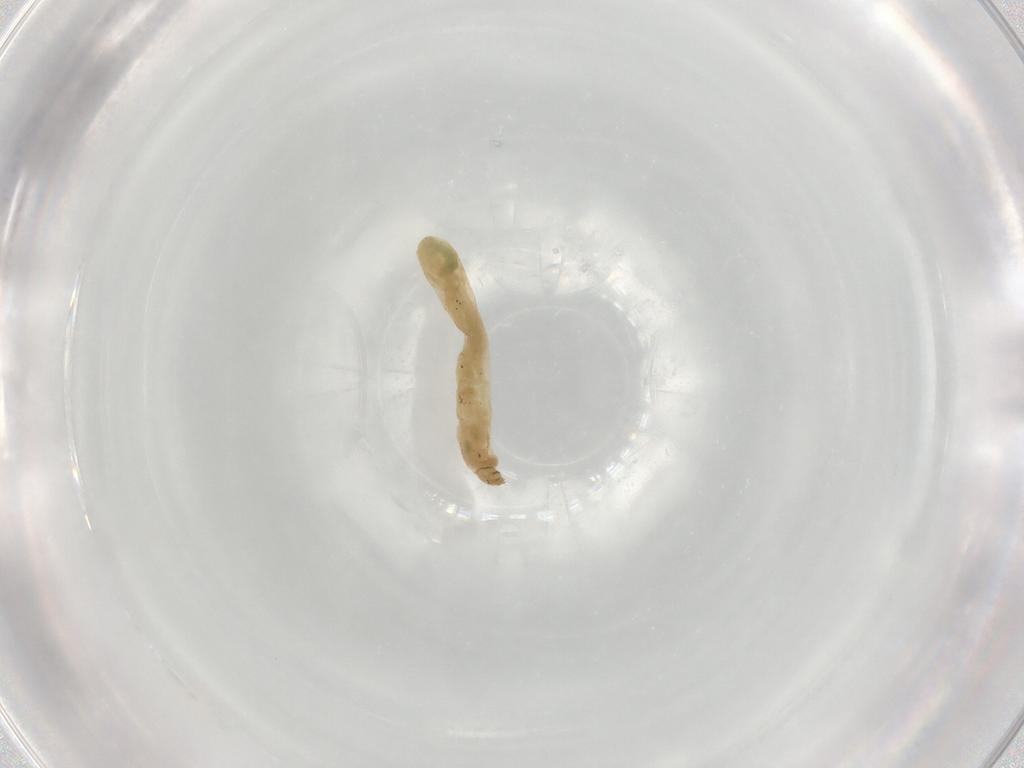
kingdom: Animalia
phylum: Arthropoda
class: Insecta
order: Diptera
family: Chironomidae
